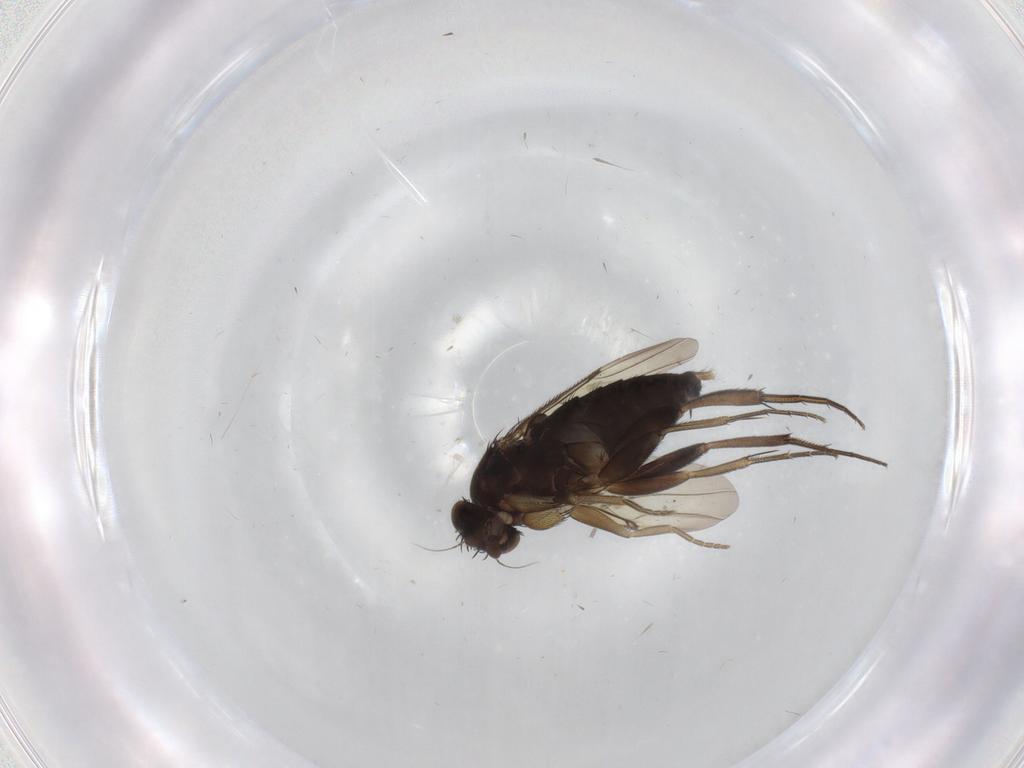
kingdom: Animalia
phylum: Arthropoda
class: Insecta
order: Diptera
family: Phoridae
